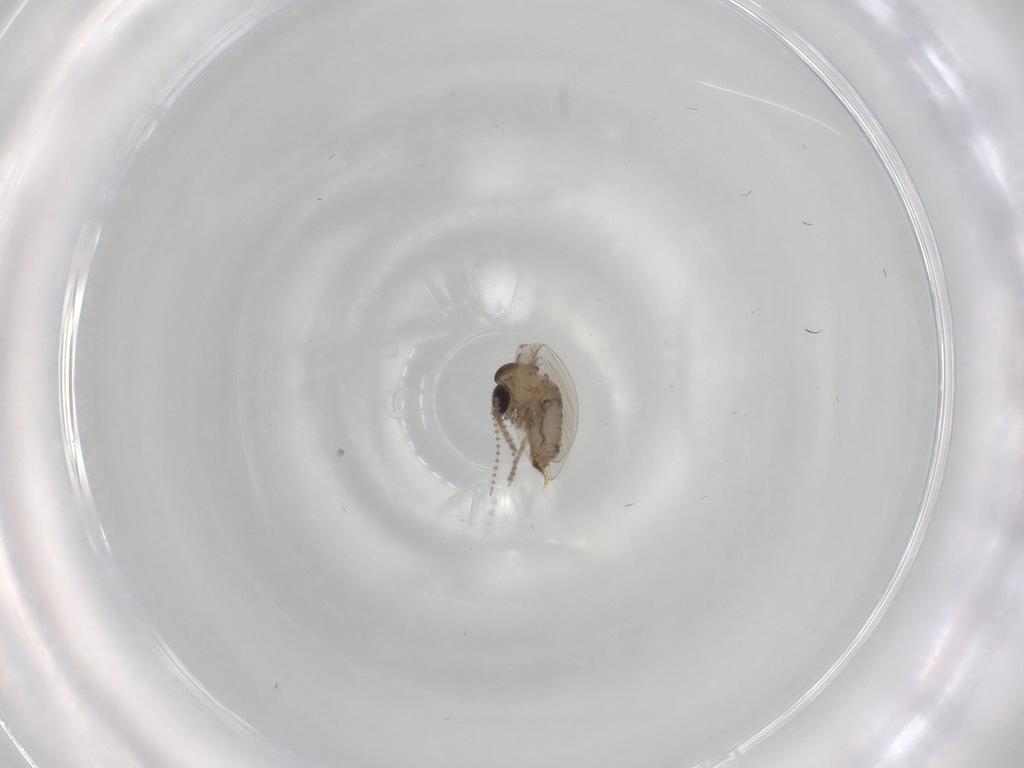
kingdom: Animalia
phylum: Arthropoda
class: Insecta
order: Diptera
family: Psychodidae
